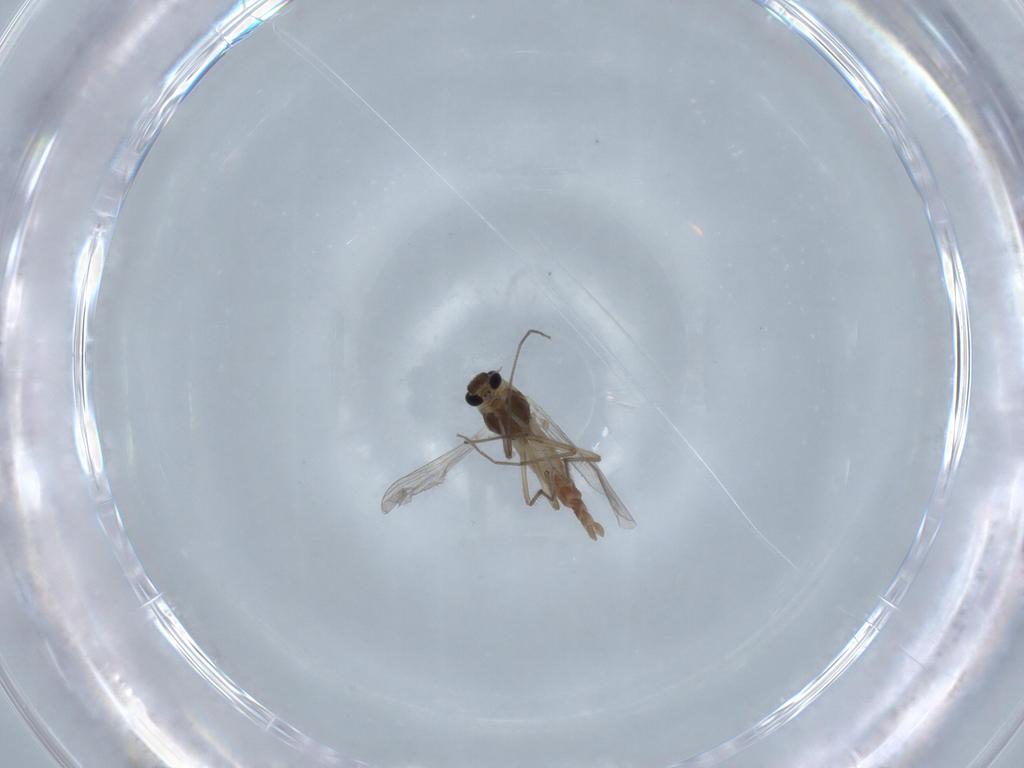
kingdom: Animalia
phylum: Arthropoda
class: Insecta
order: Diptera
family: Chironomidae
